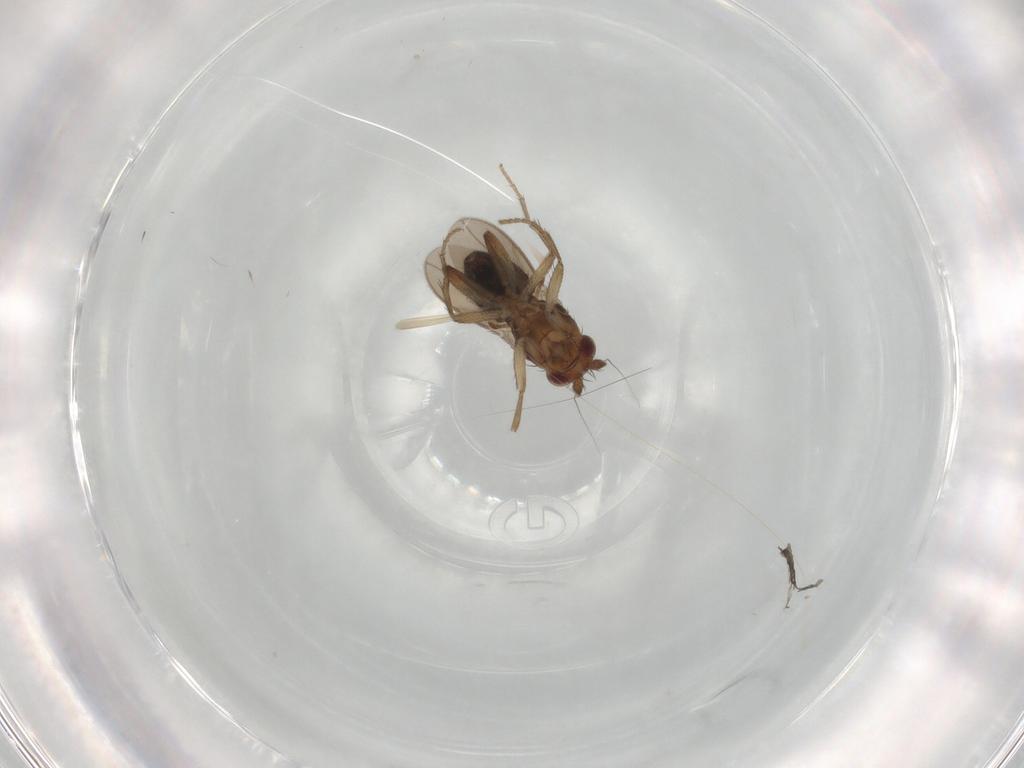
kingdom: Animalia
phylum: Arthropoda
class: Insecta
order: Diptera
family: Sphaeroceridae
